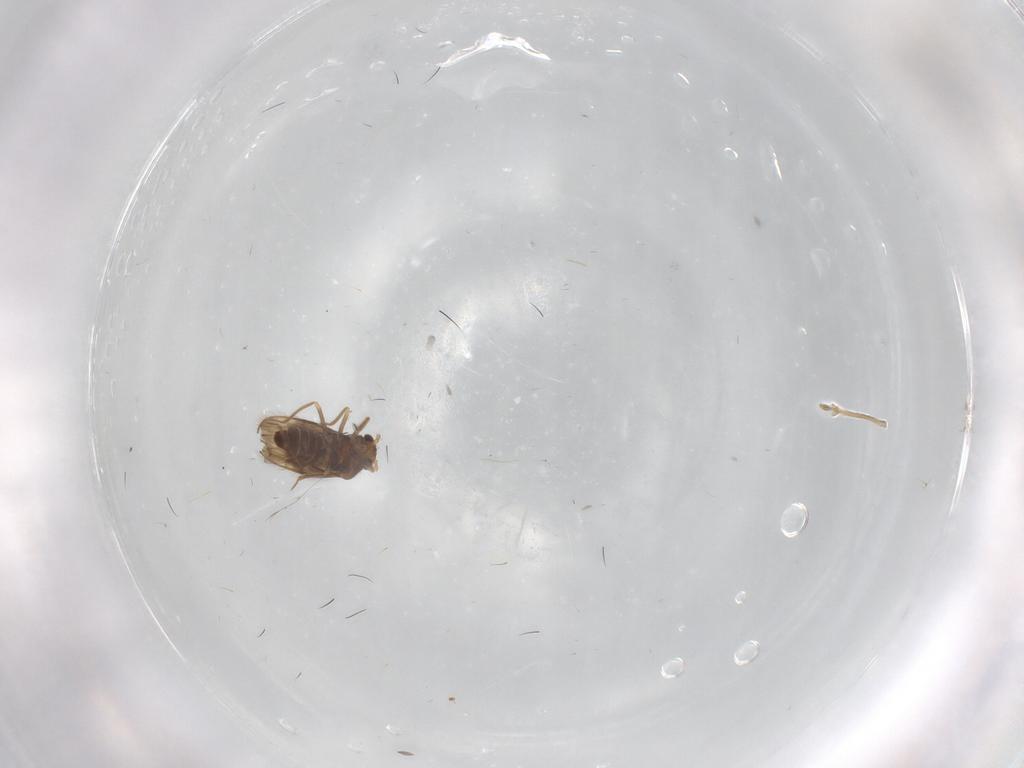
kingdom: Animalia
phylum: Arthropoda
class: Insecta
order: Hemiptera
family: Schizopteridae
